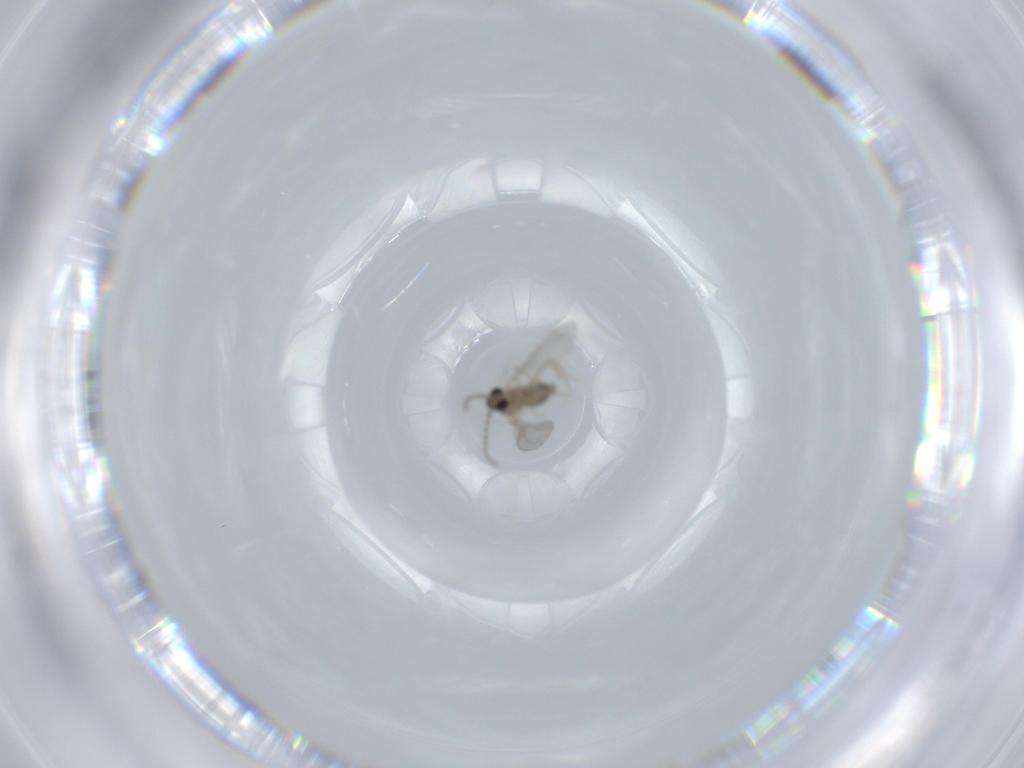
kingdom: Animalia
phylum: Arthropoda
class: Insecta
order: Diptera
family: Cecidomyiidae
